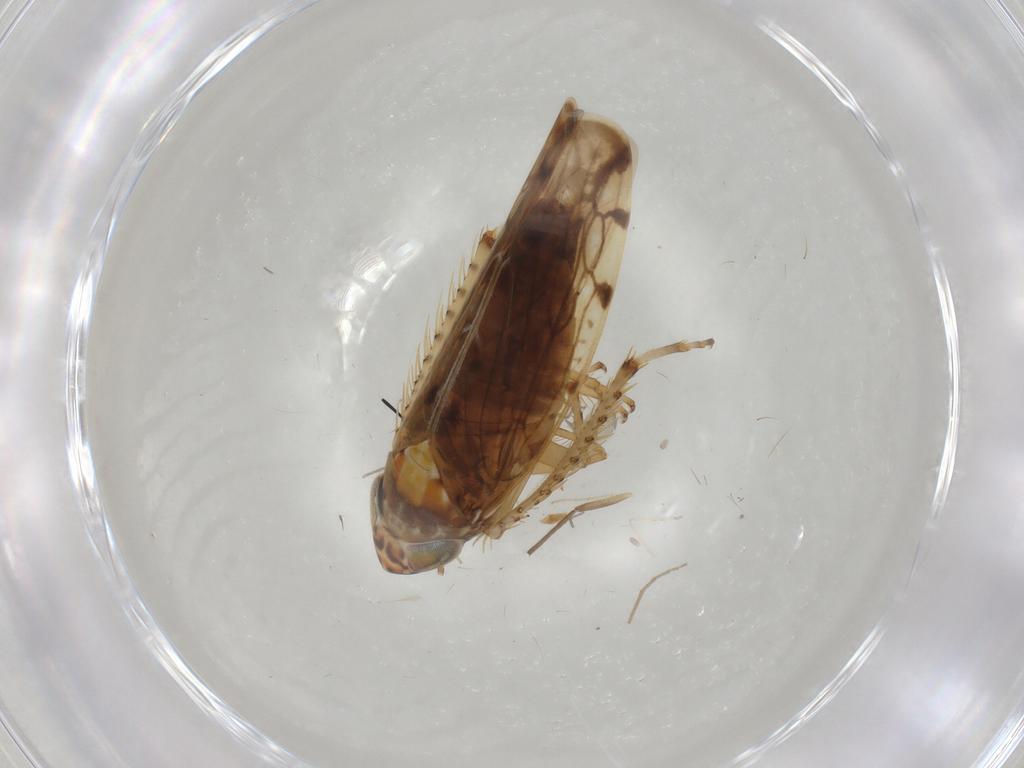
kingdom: Animalia
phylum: Arthropoda
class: Insecta
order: Hemiptera
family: Cicadellidae
